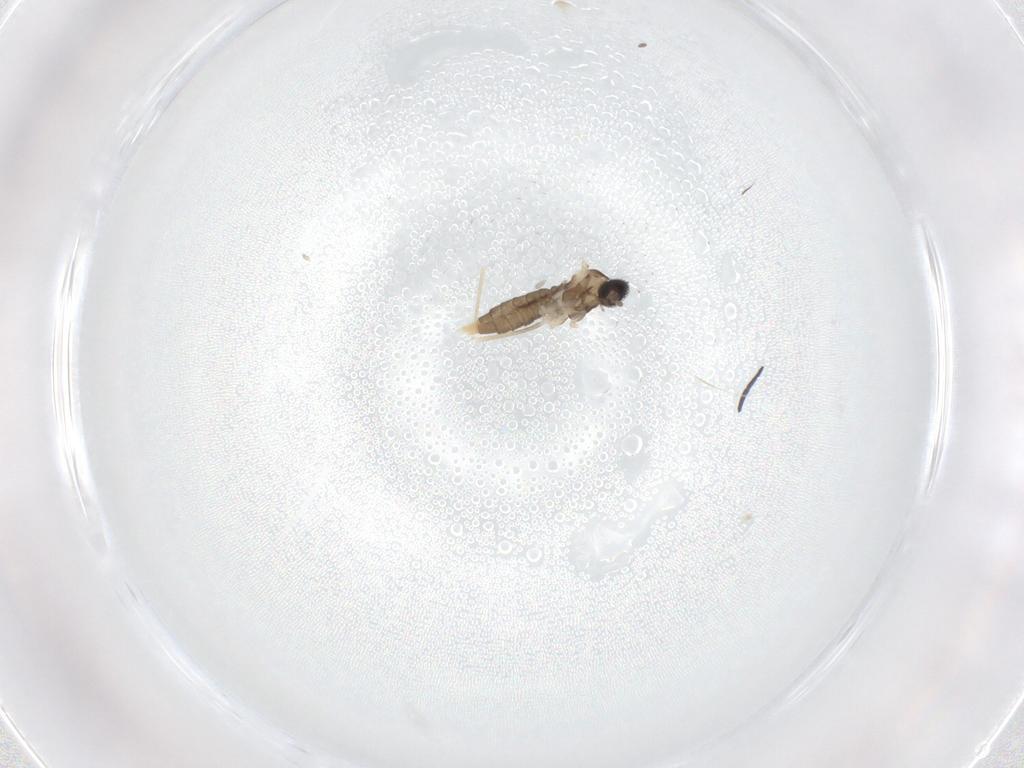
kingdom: Animalia
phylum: Arthropoda
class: Insecta
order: Diptera
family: Cecidomyiidae
